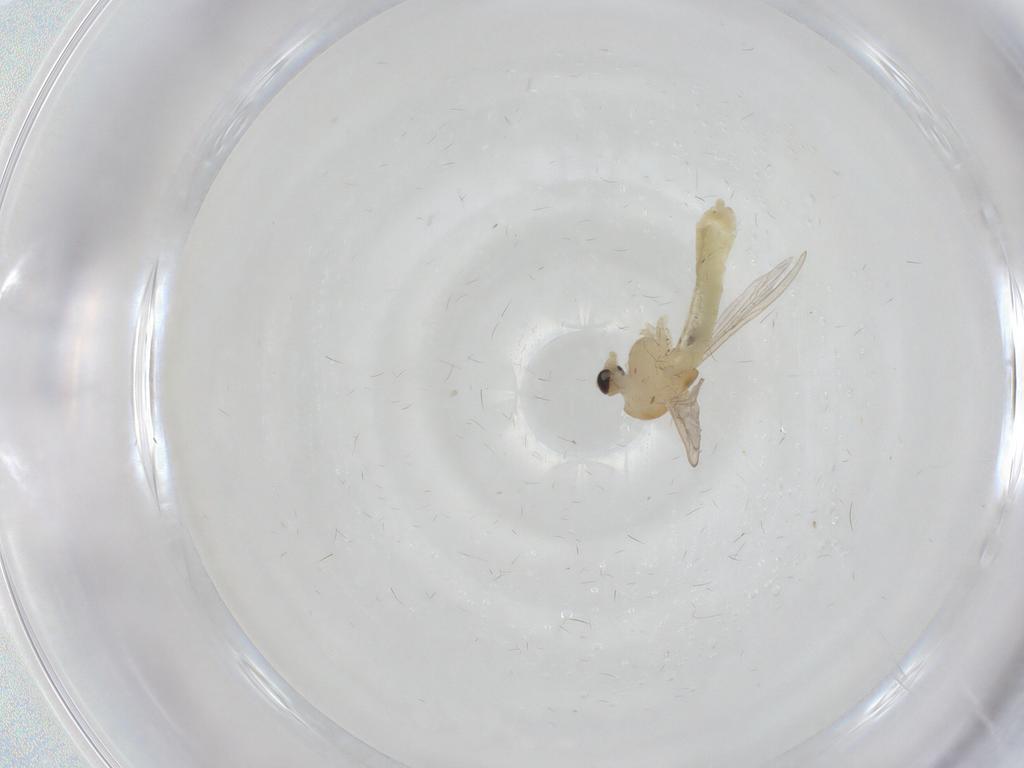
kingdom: Animalia
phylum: Arthropoda
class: Insecta
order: Diptera
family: Chironomidae
